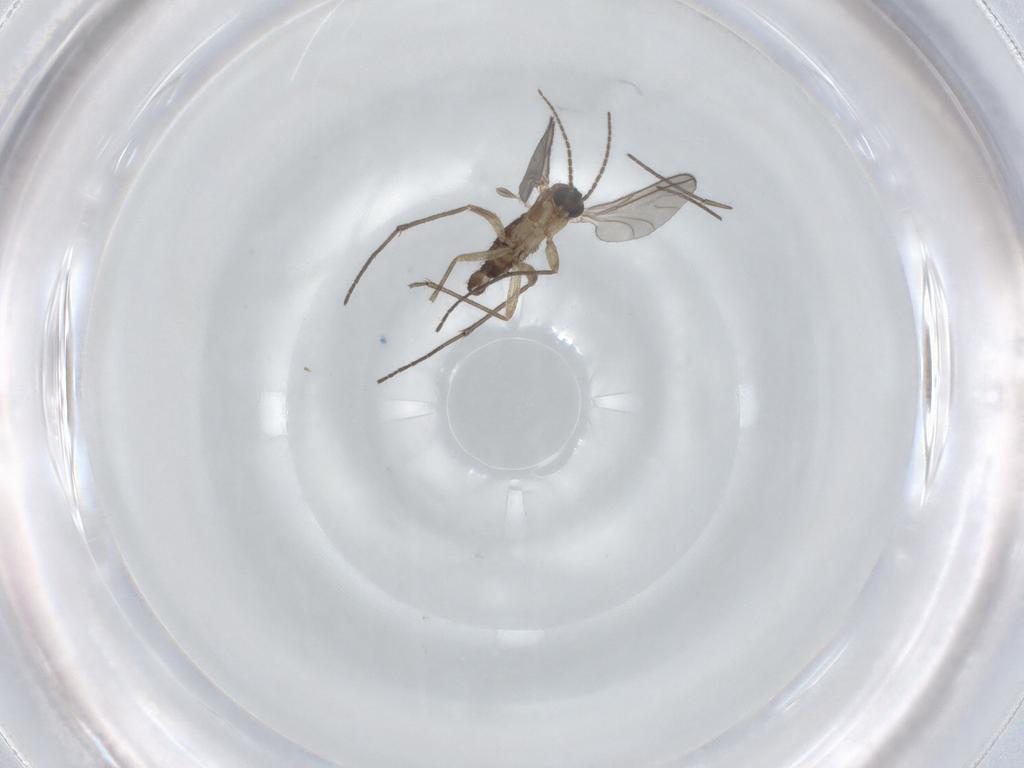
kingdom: Animalia
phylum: Arthropoda
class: Insecta
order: Diptera
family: Sciaridae
